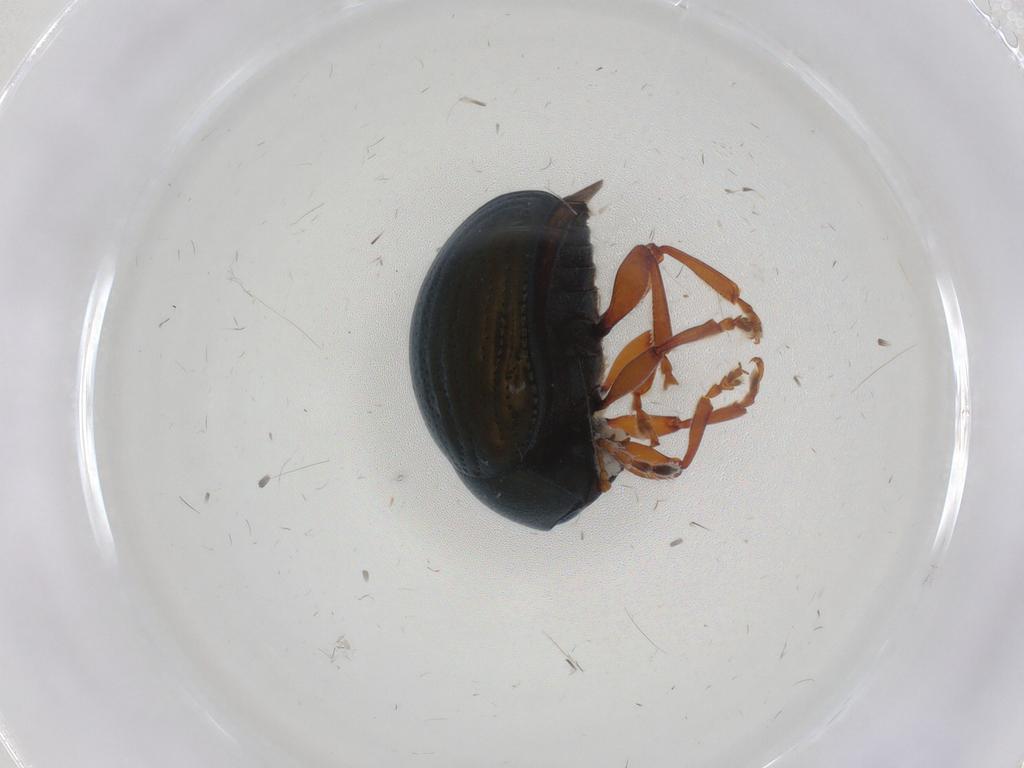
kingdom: Animalia
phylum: Arthropoda
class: Insecta
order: Coleoptera
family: Chrysomelidae
